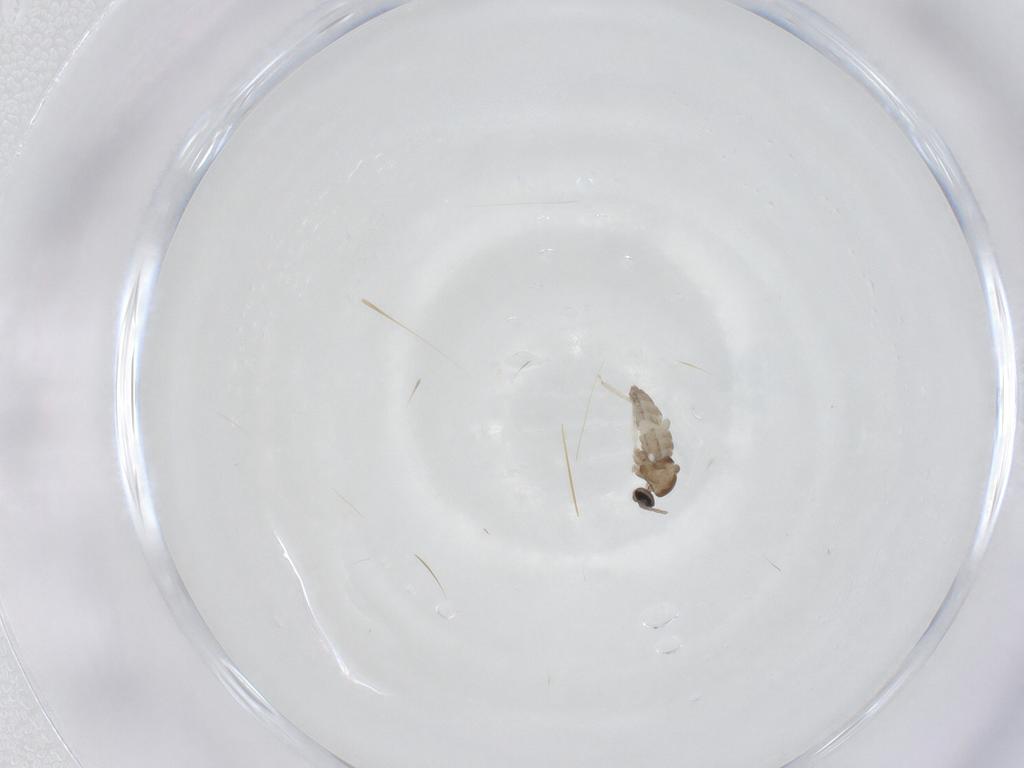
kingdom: Animalia
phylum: Arthropoda
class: Insecta
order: Diptera
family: Cecidomyiidae
